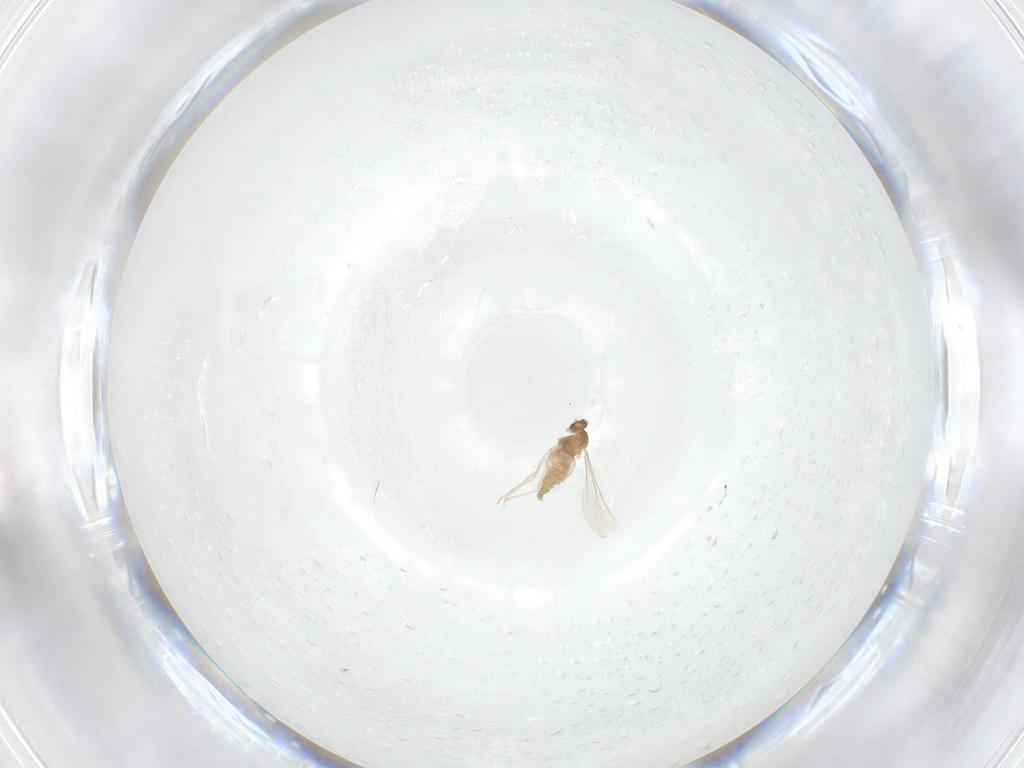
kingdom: Animalia
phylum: Arthropoda
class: Insecta
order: Diptera
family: Cecidomyiidae
